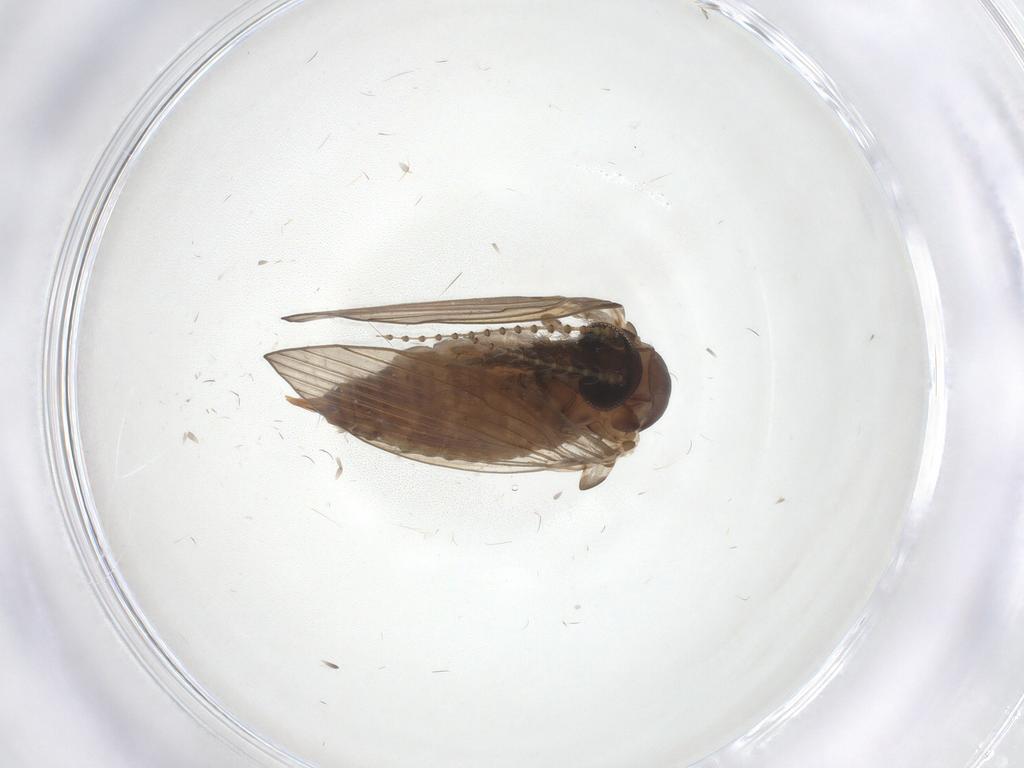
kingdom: Animalia
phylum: Arthropoda
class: Insecta
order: Diptera
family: Psychodidae
